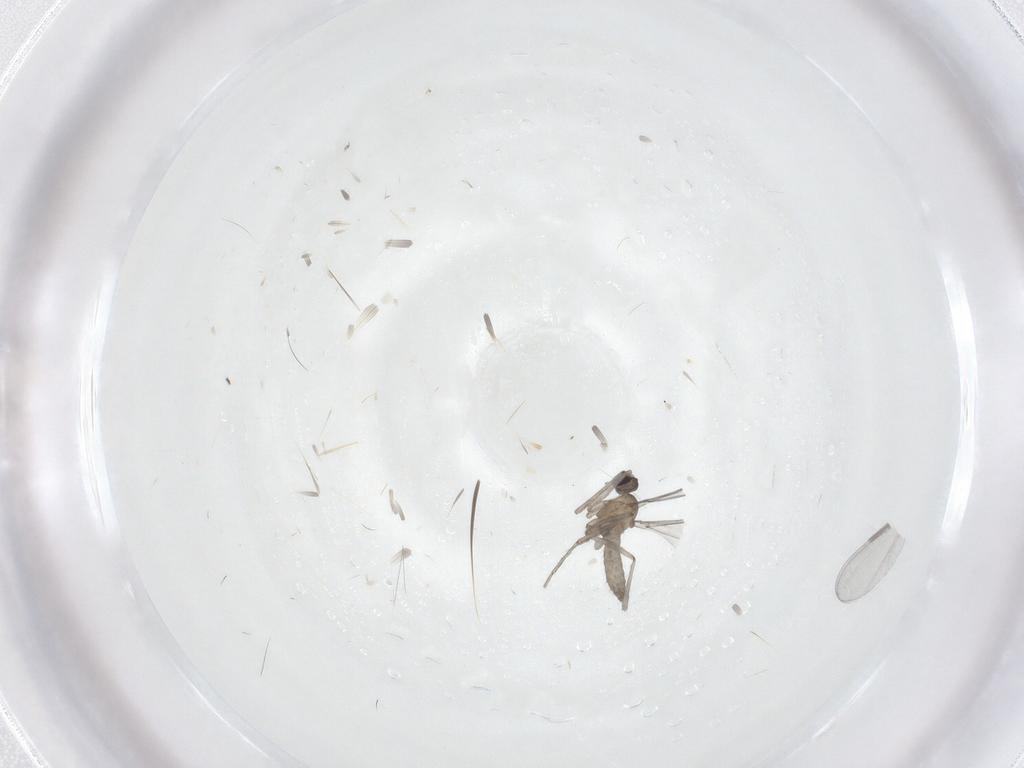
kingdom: Animalia
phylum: Arthropoda
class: Insecta
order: Diptera
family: Cecidomyiidae
